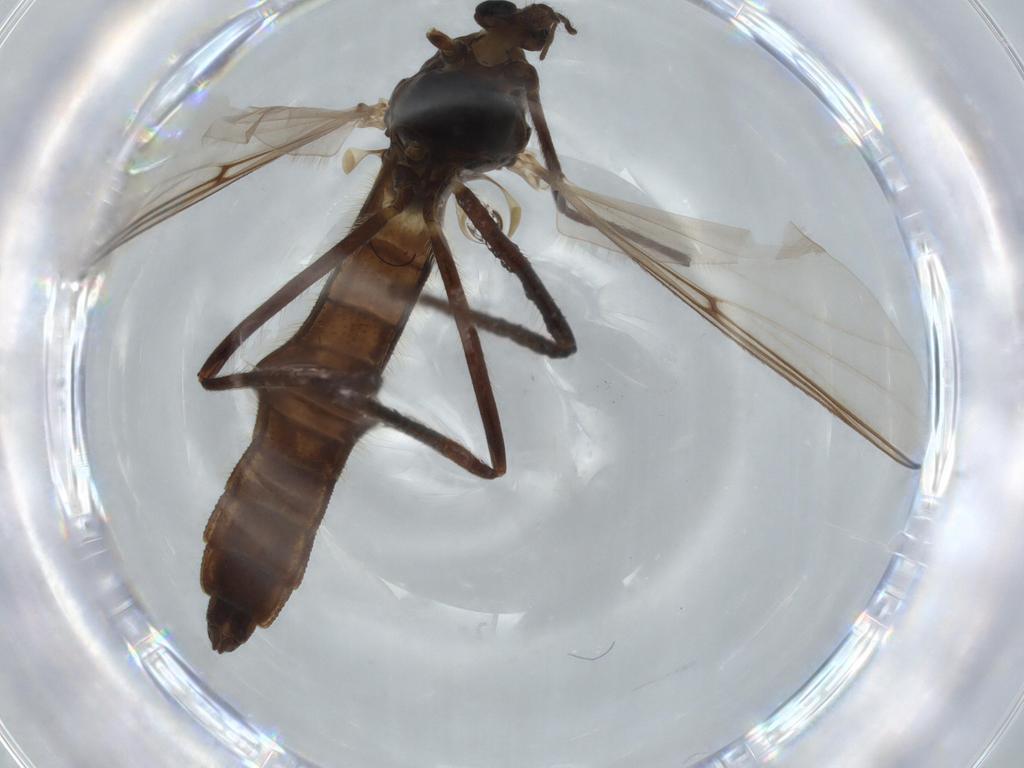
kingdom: Animalia
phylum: Arthropoda
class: Insecta
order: Diptera
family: Chironomidae
